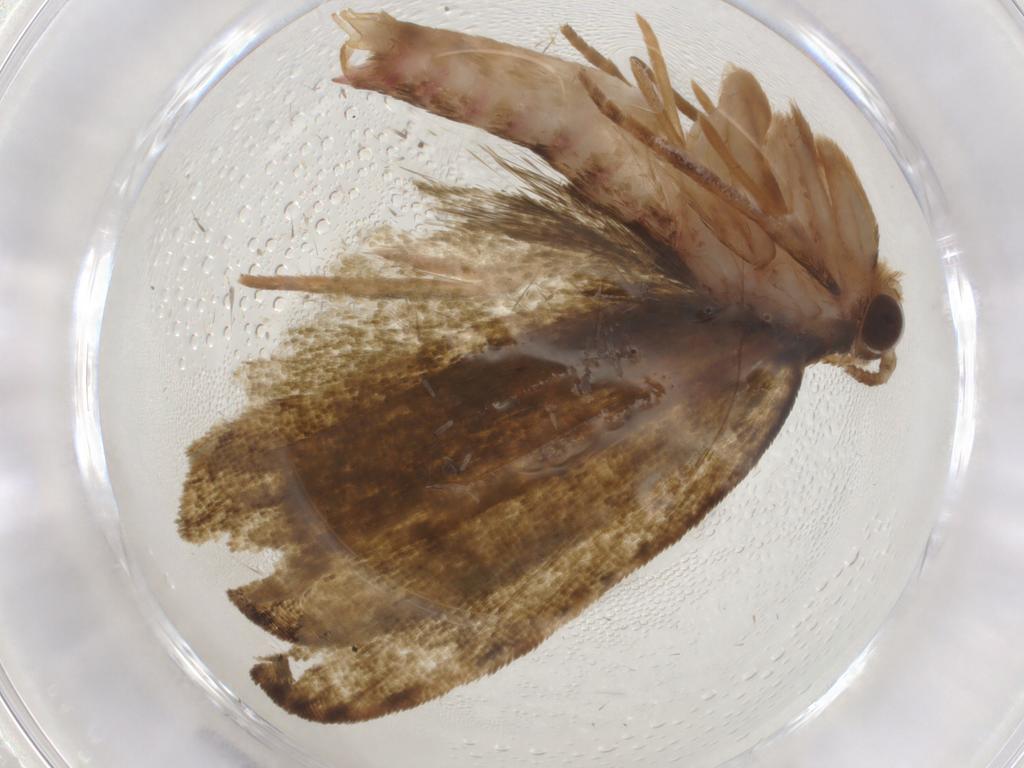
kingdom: Animalia
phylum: Arthropoda
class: Insecta
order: Lepidoptera
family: Geometridae
